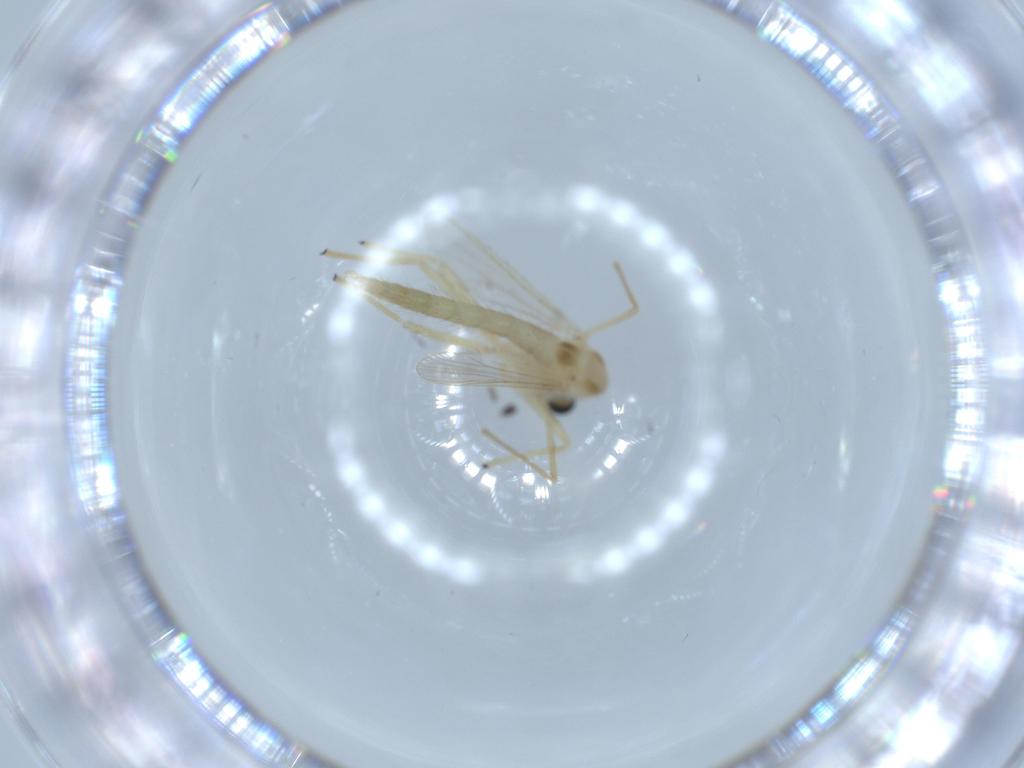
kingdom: Animalia
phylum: Arthropoda
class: Insecta
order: Diptera
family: Sciaridae
